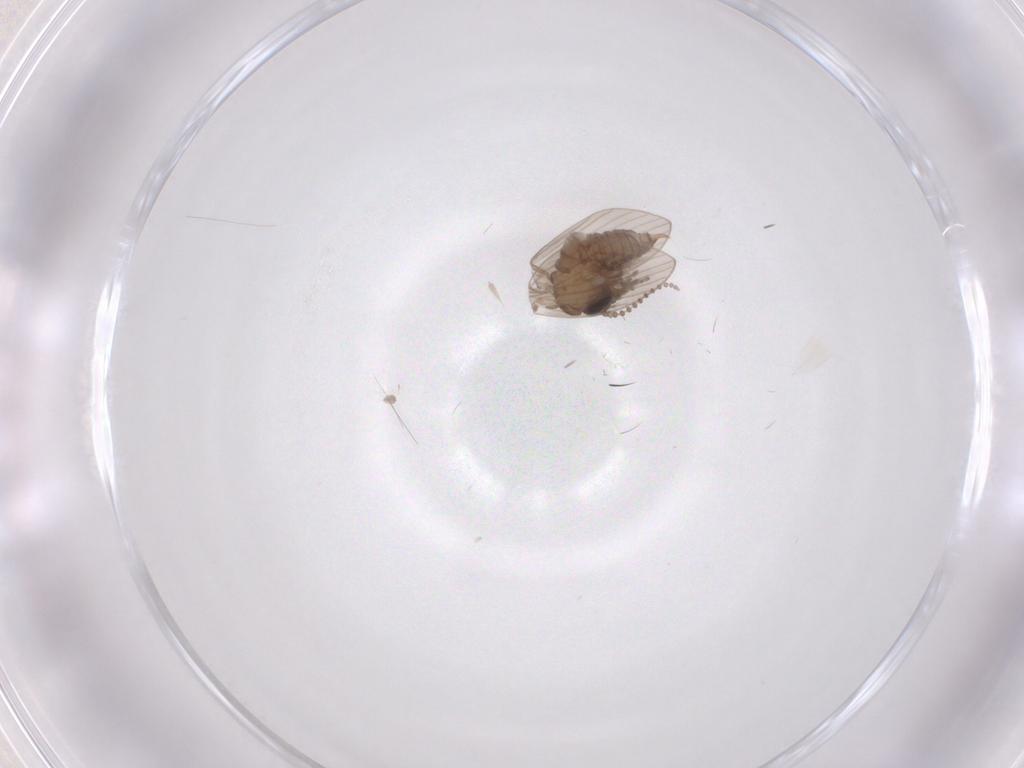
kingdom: Animalia
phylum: Arthropoda
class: Insecta
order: Diptera
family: Psychodidae
